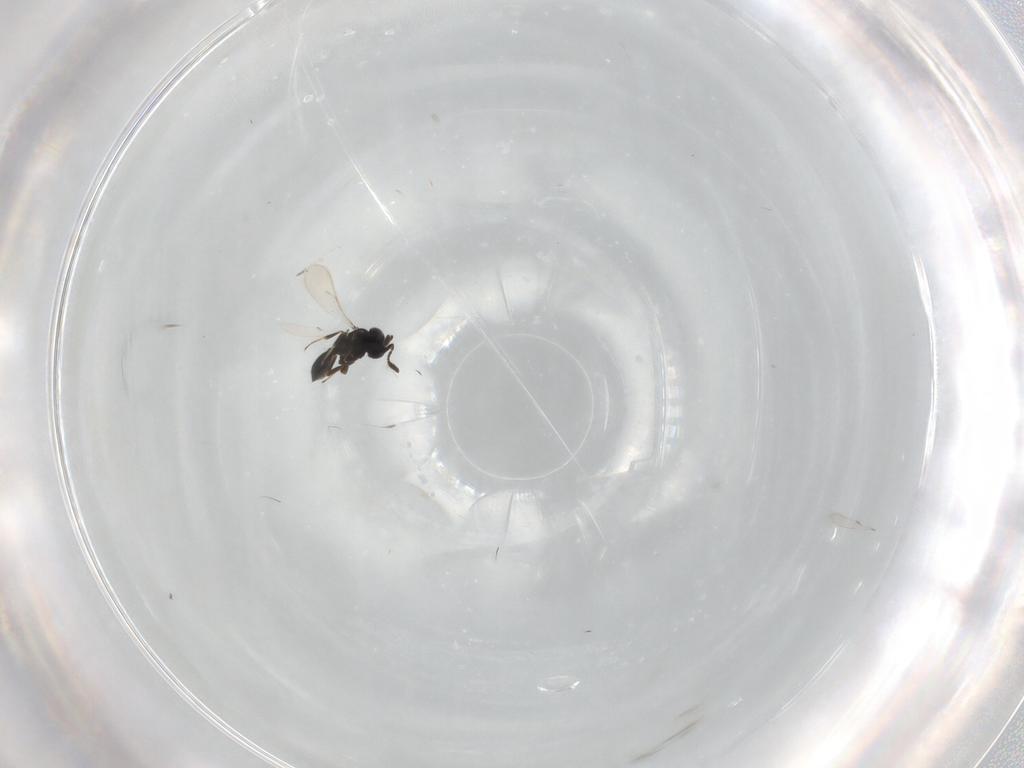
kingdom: Animalia
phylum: Arthropoda
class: Insecta
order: Hymenoptera
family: Scelionidae
